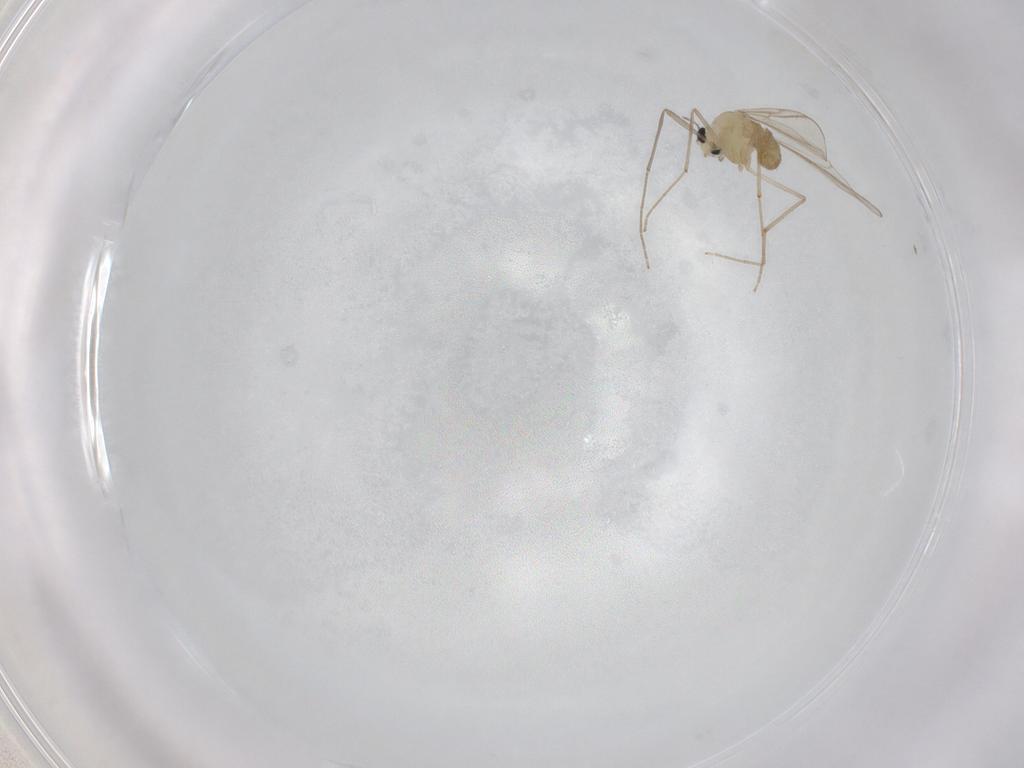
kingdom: Animalia
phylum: Arthropoda
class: Insecta
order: Diptera
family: Chironomidae
